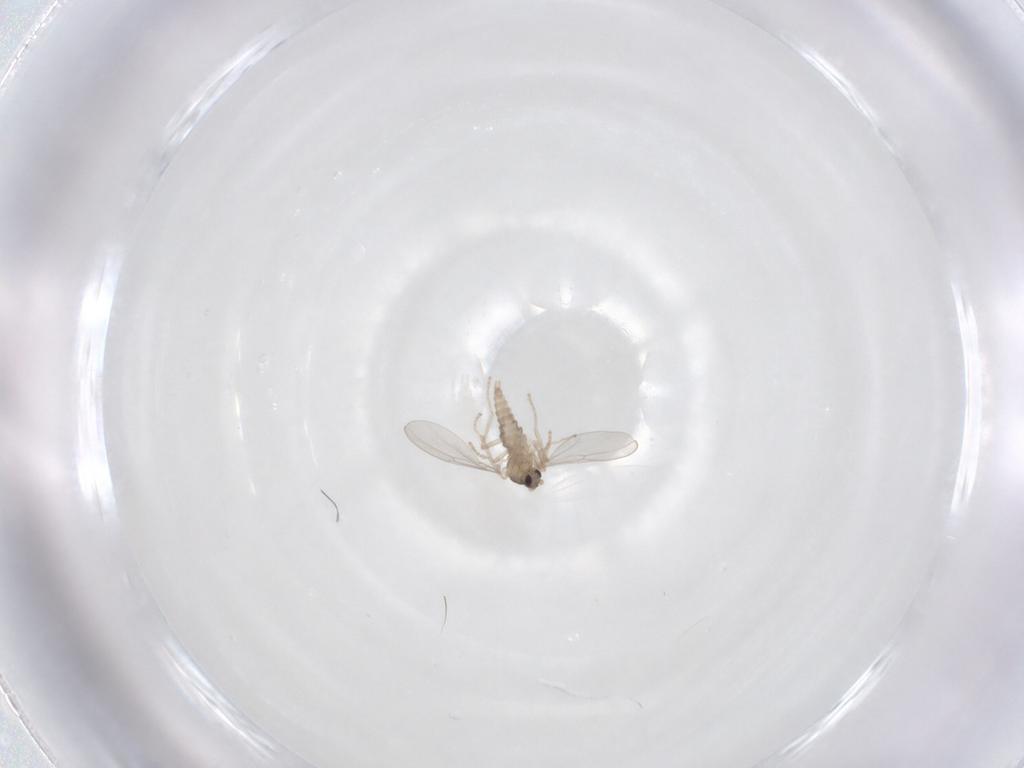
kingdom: Animalia
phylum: Arthropoda
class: Insecta
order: Diptera
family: Cecidomyiidae
